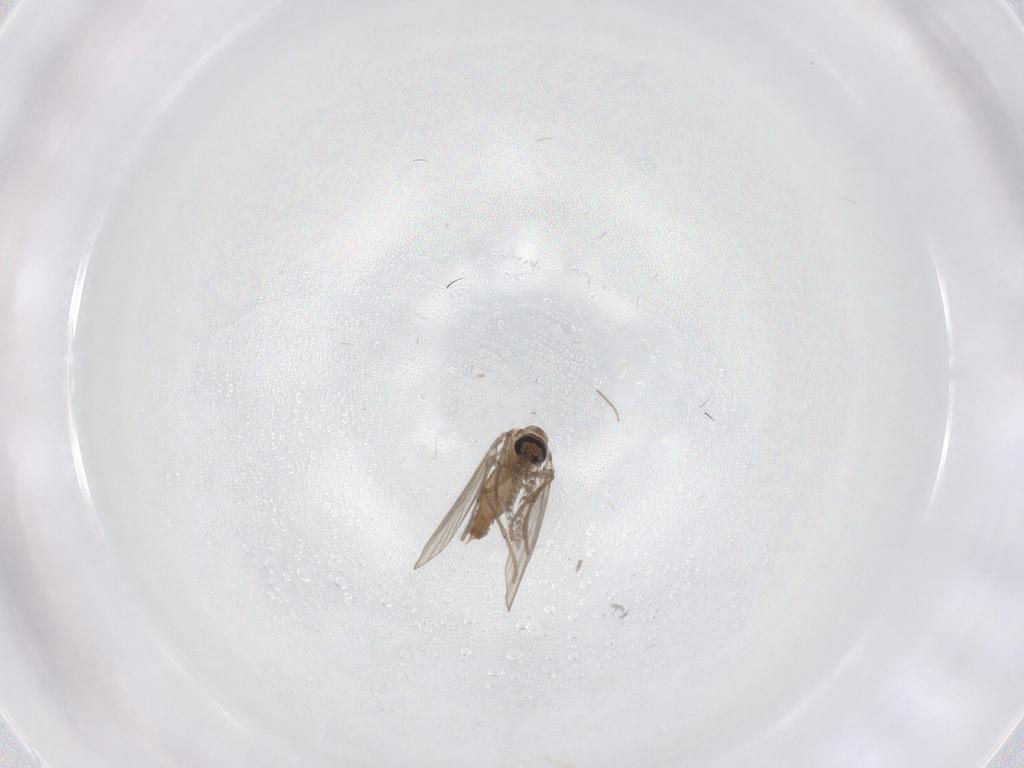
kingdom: Animalia
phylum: Arthropoda
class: Insecta
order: Diptera
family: Psychodidae
